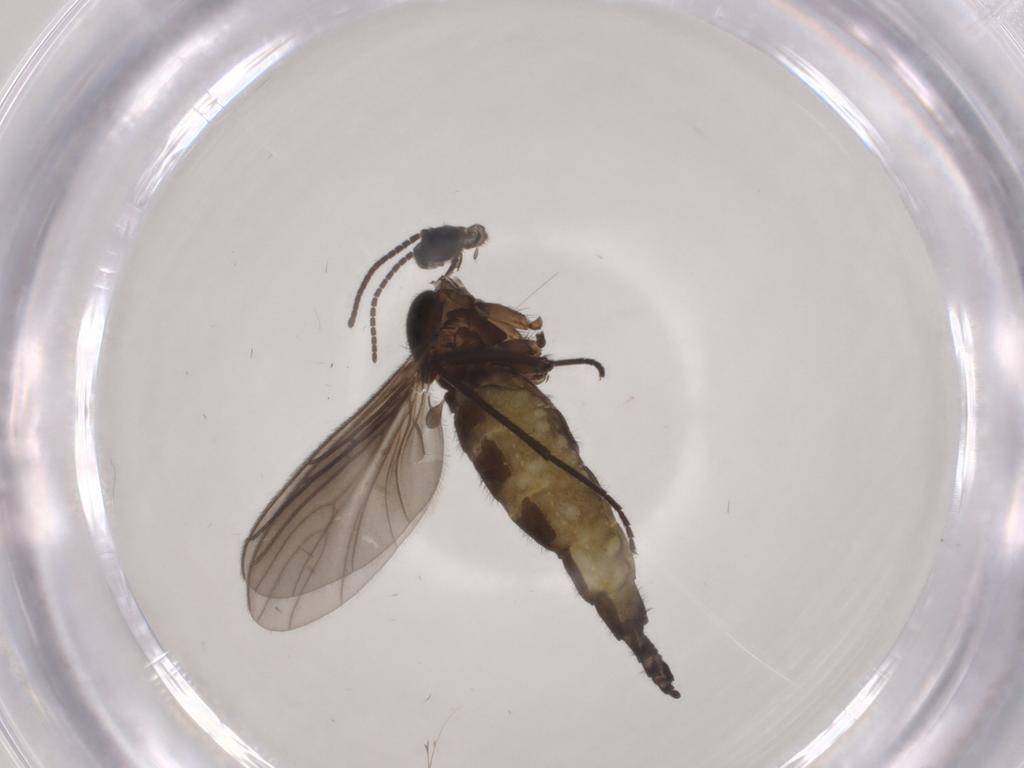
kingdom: Animalia
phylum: Arthropoda
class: Insecta
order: Diptera
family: Sciaridae
